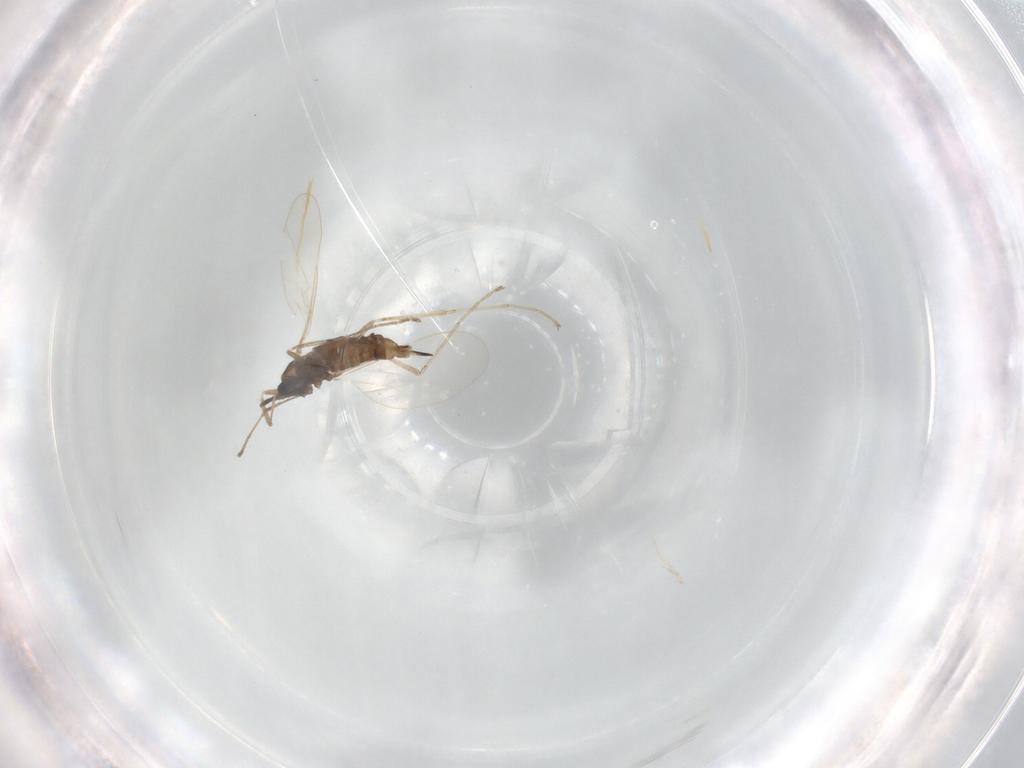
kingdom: Animalia
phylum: Arthropoda
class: Insecta
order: Diptera
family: Cecidomyiidae
